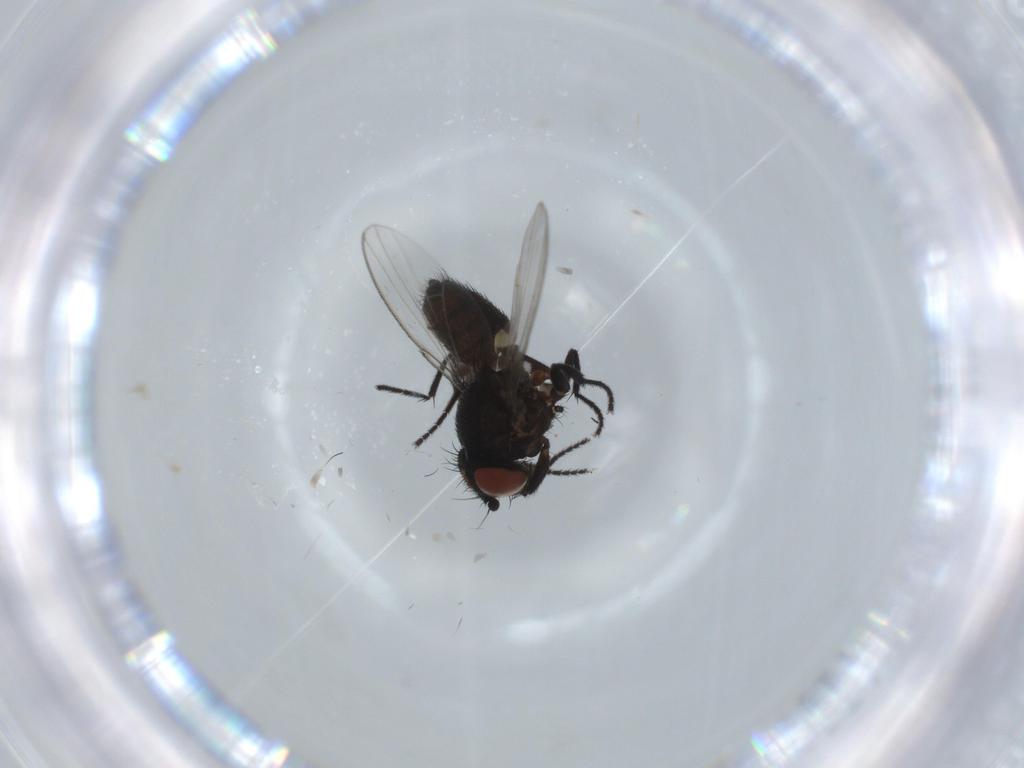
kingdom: Animalia
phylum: Arthropoda
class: Insecta
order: Diptera
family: Milichiidae
